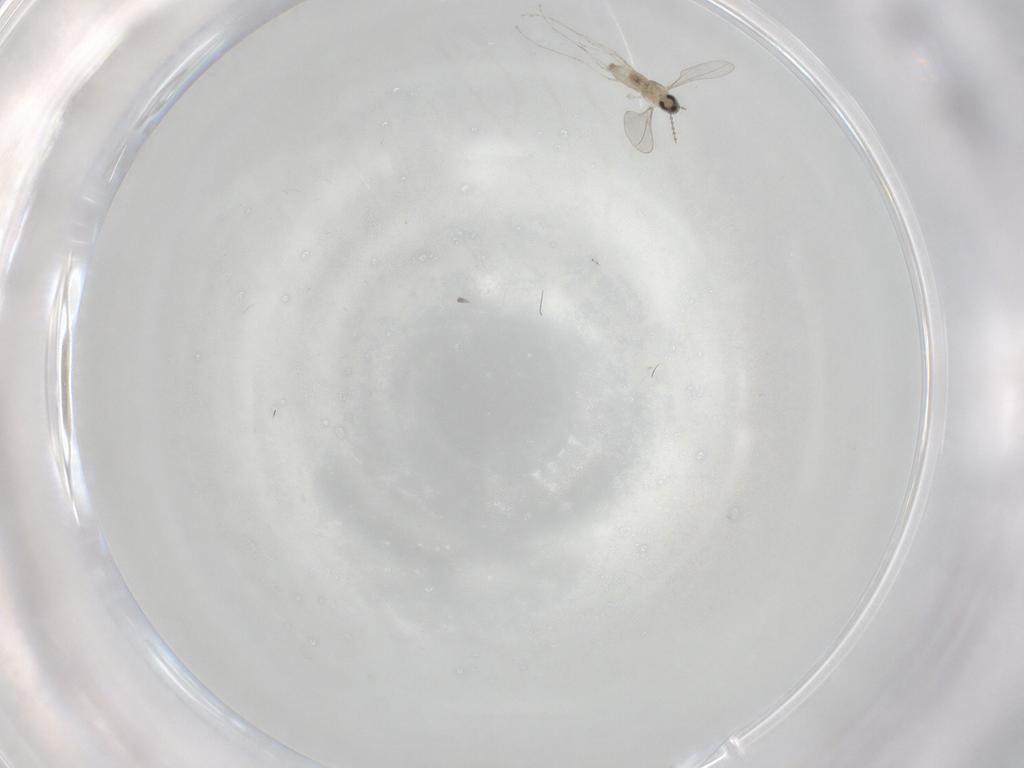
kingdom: Animalia
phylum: Arthropoda
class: Insecta
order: Diptera
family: Cecidomyiidae
